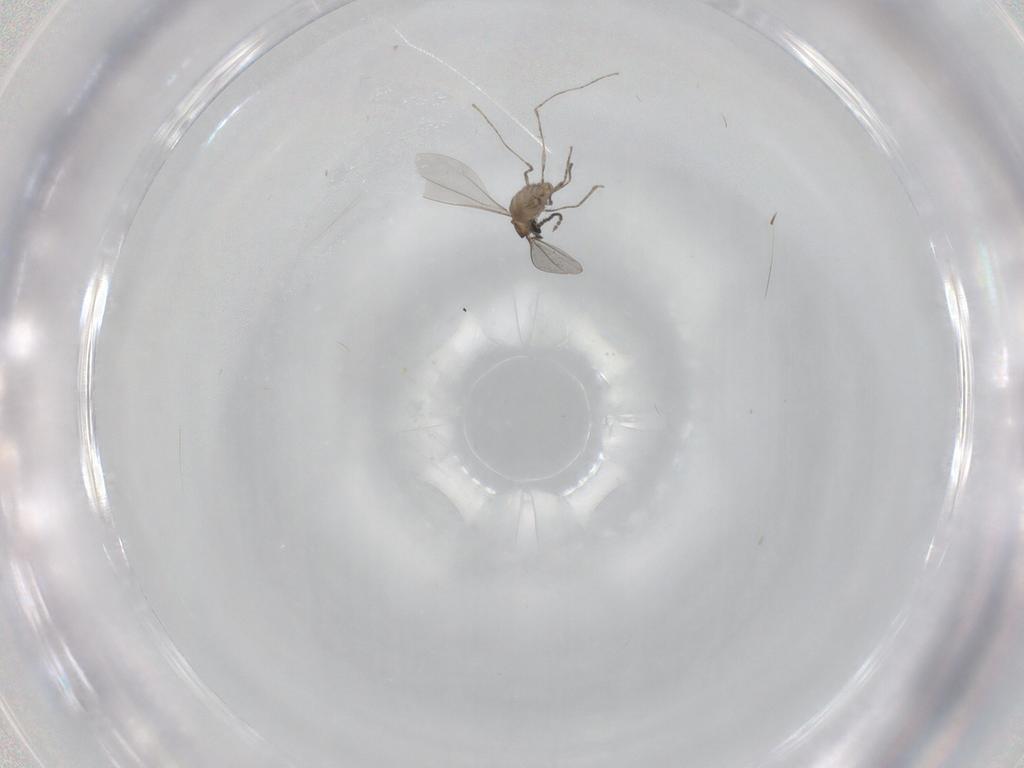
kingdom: Animalia
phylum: Arthropoda
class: Insecta
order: Diptera
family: Cecidomyiidae
